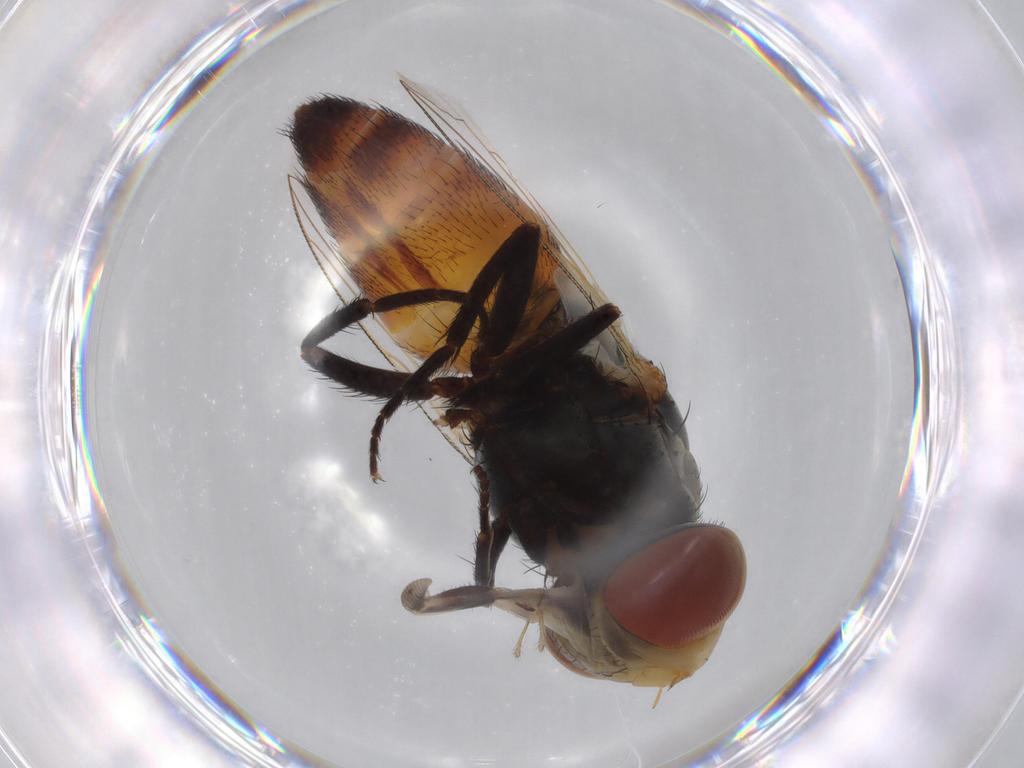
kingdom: Animalia
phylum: Arthropoda
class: Insecta
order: Diptera
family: Sarcophagidae
